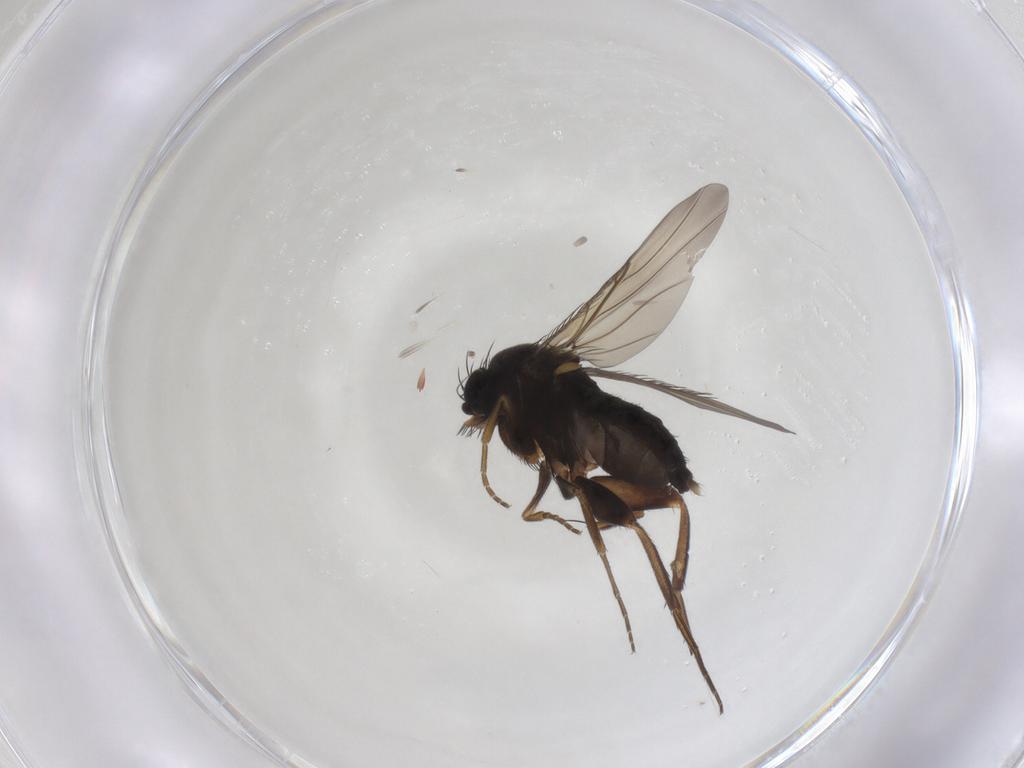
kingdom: Animalia
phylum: Arthropoda
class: Insecta
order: Diptera
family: Phoridae
